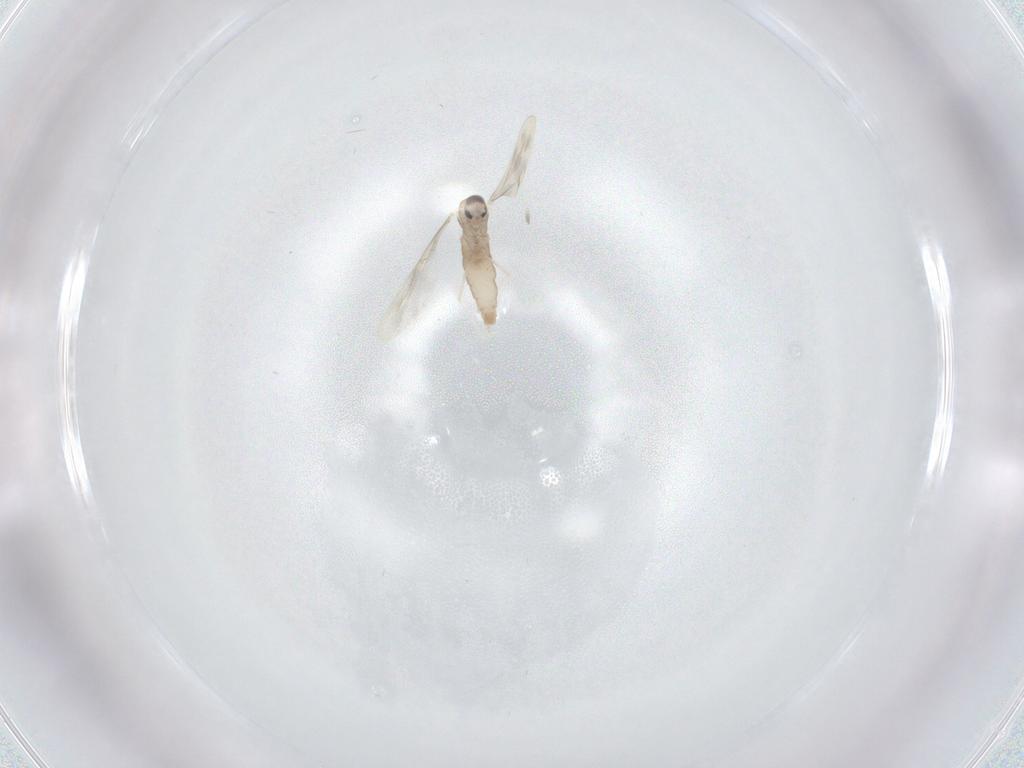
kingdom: Animalia
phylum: Arthropoda
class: Insecta
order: Diptera
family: Cecidomyiidae
